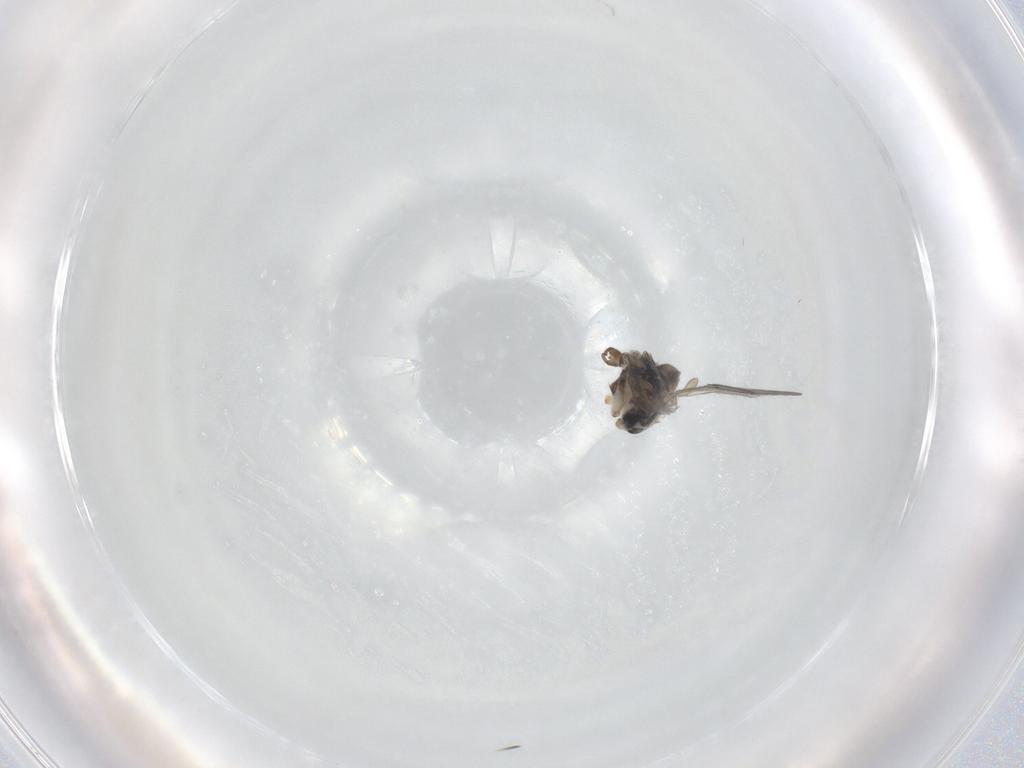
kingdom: Animalia
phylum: Arthropoda
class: Insecta
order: Diptera
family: Sciaridae
